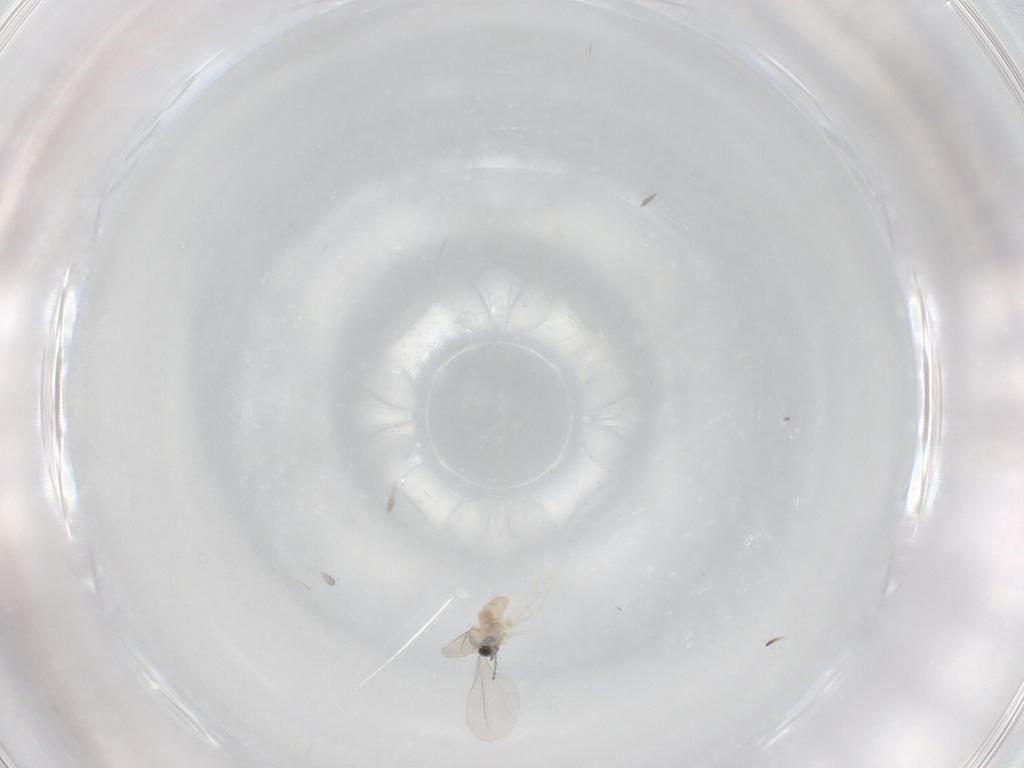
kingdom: Animalia
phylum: Arthropoda
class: Insecta
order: Diptera
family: Cecidomyiidae
